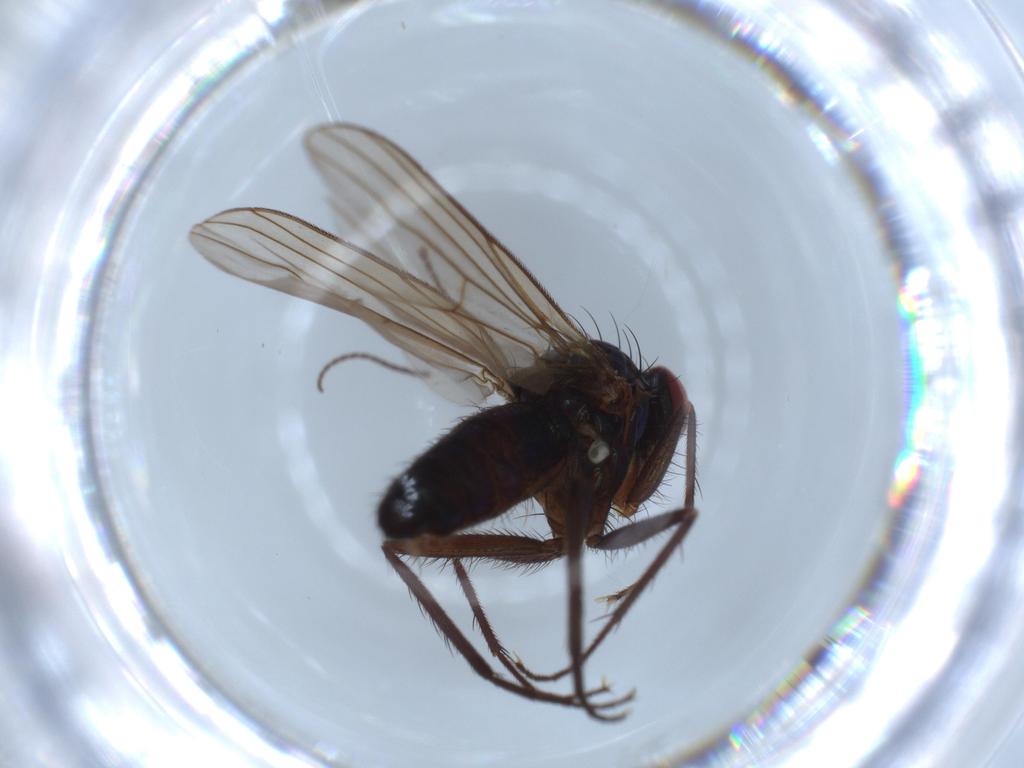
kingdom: Animalia
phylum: Arthropoda
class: Insecta
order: Diptera
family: Dolichopodidae
